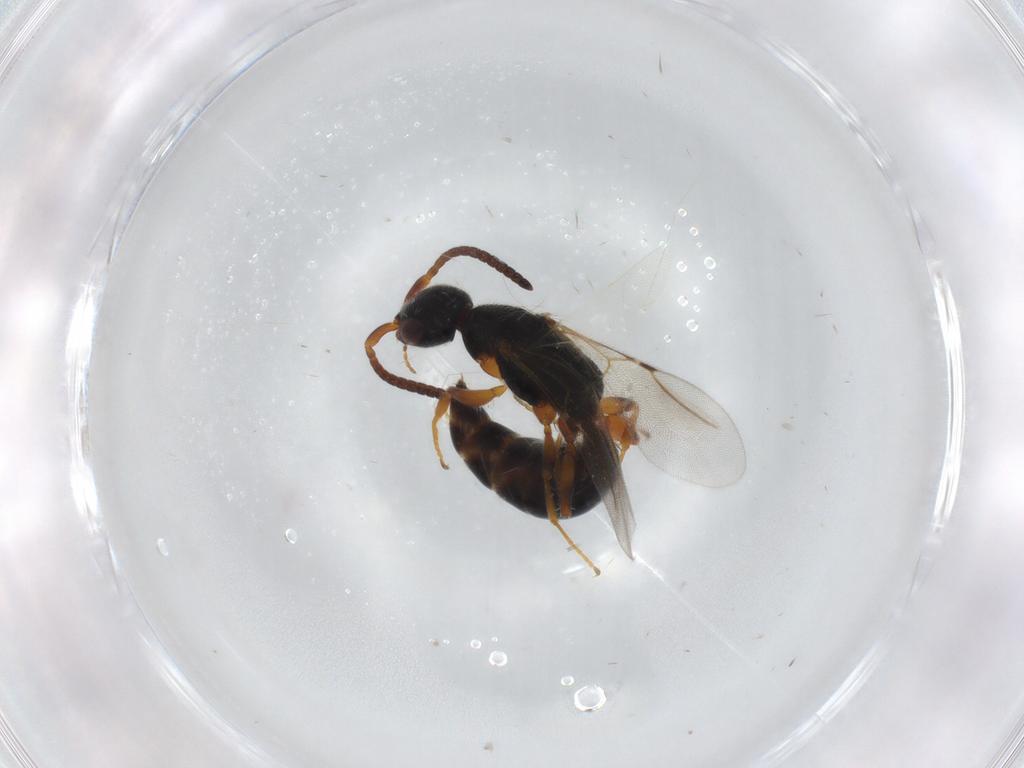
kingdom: Animalia
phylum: Arthropoda
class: Insecta
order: Hymenoptera
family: Bethylidae
